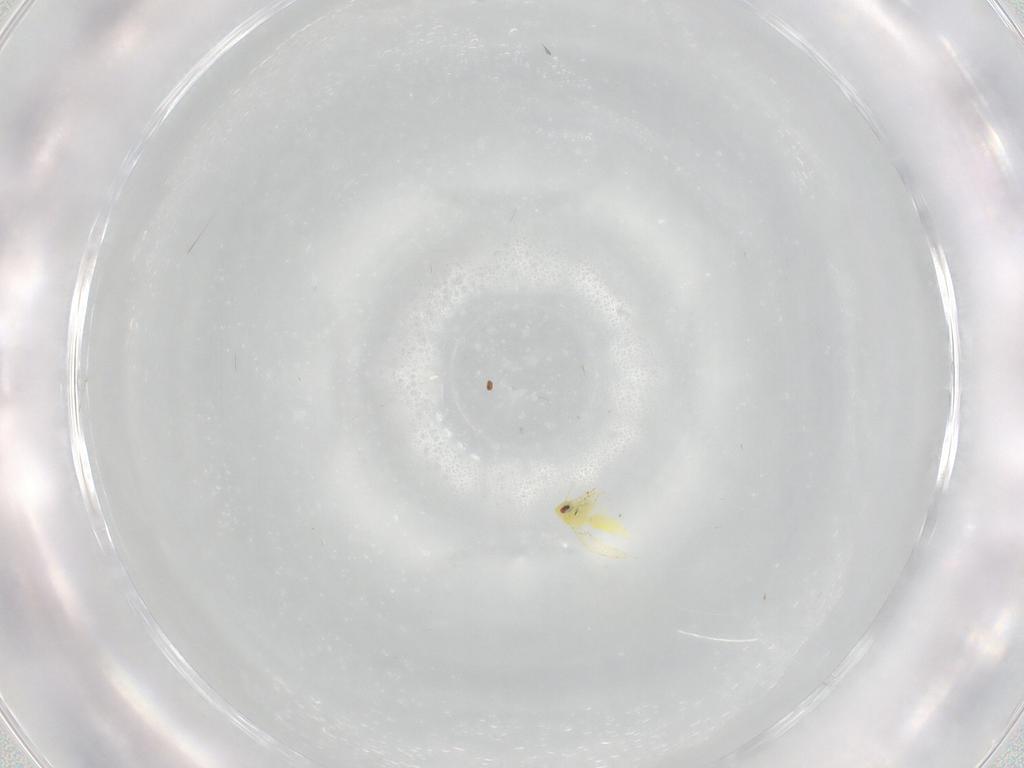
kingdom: Animalia
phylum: Arthropoda
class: Insecta
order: Hemiptera
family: Aleyrodidae
